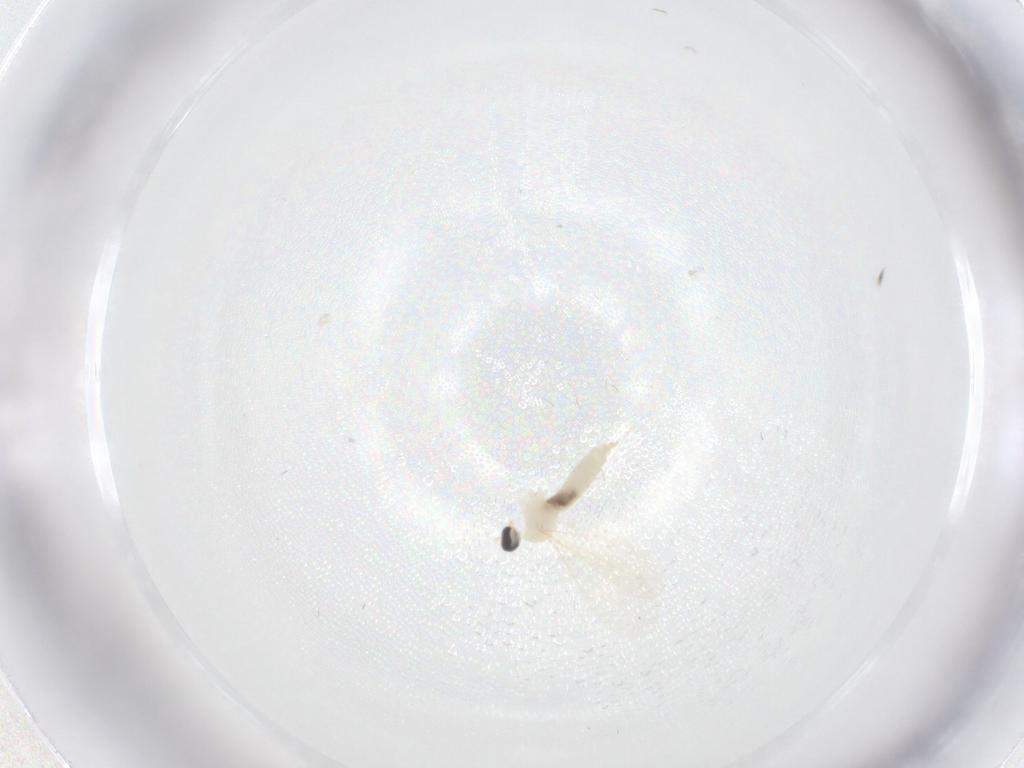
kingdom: Animalia
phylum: Arthropoda
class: Insecta
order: Diptera
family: Cecidomyiidae
